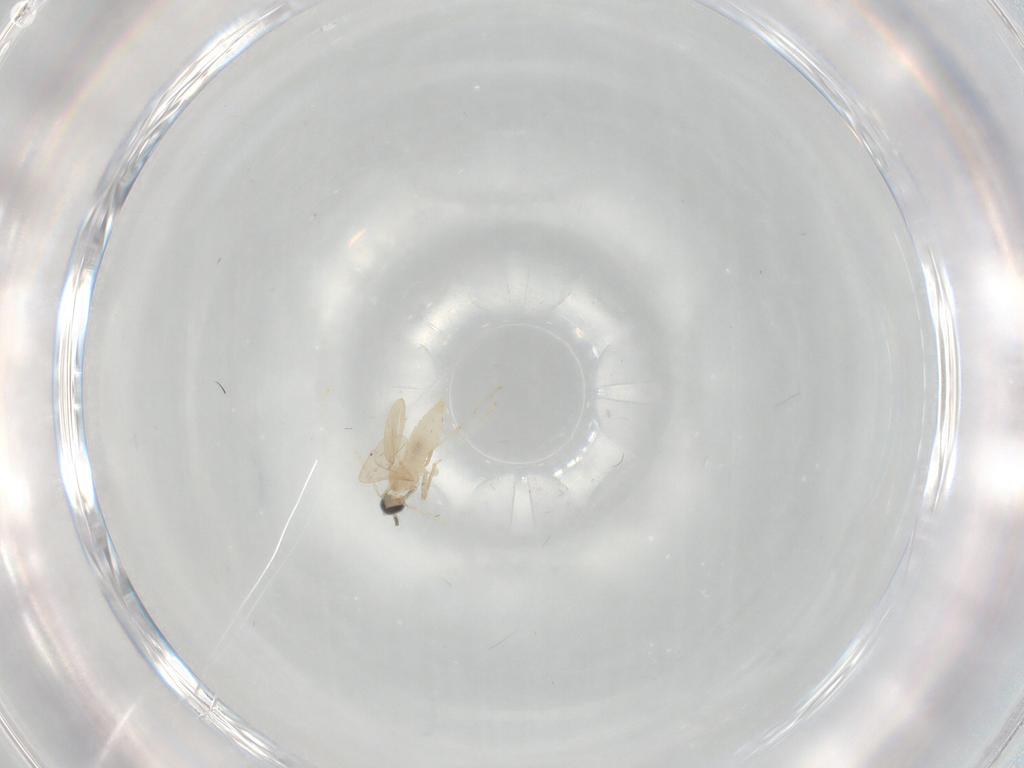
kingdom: Animalia
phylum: Arthropoda
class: Insecta
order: Diptera
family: Cecidomyiidae
